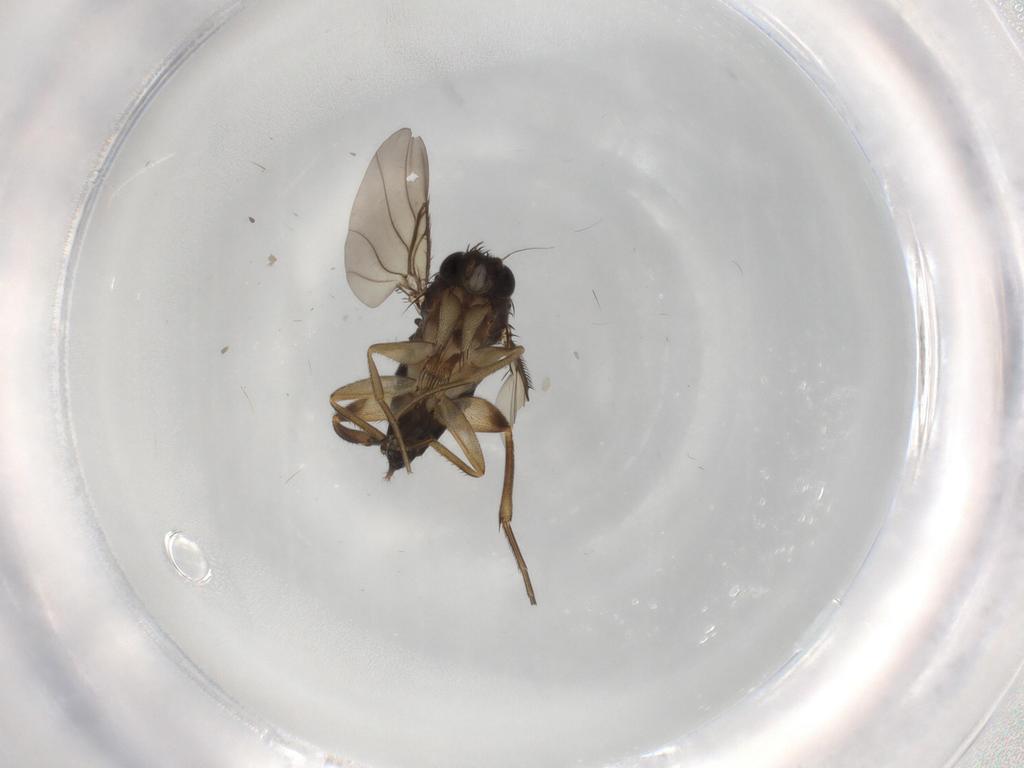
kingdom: Animalia
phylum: Arthropoda
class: Insecta
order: Diptera
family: Phoridae
